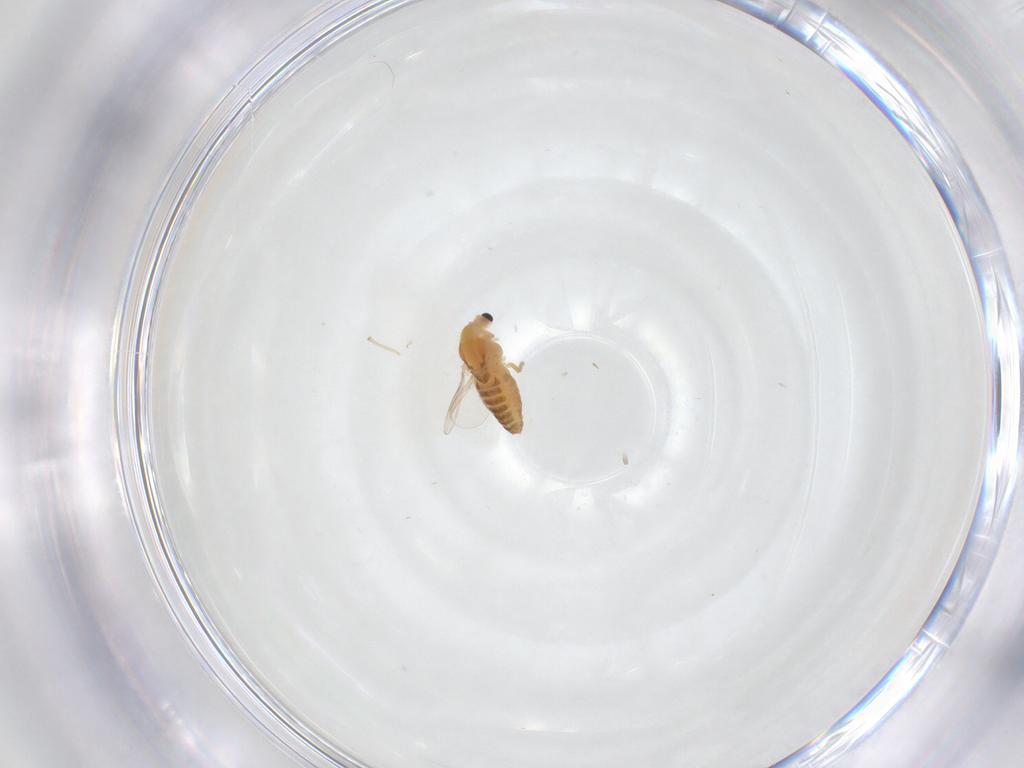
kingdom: Animalia
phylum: Arthropoda
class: Insecta
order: Diptera
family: Chironomidae
